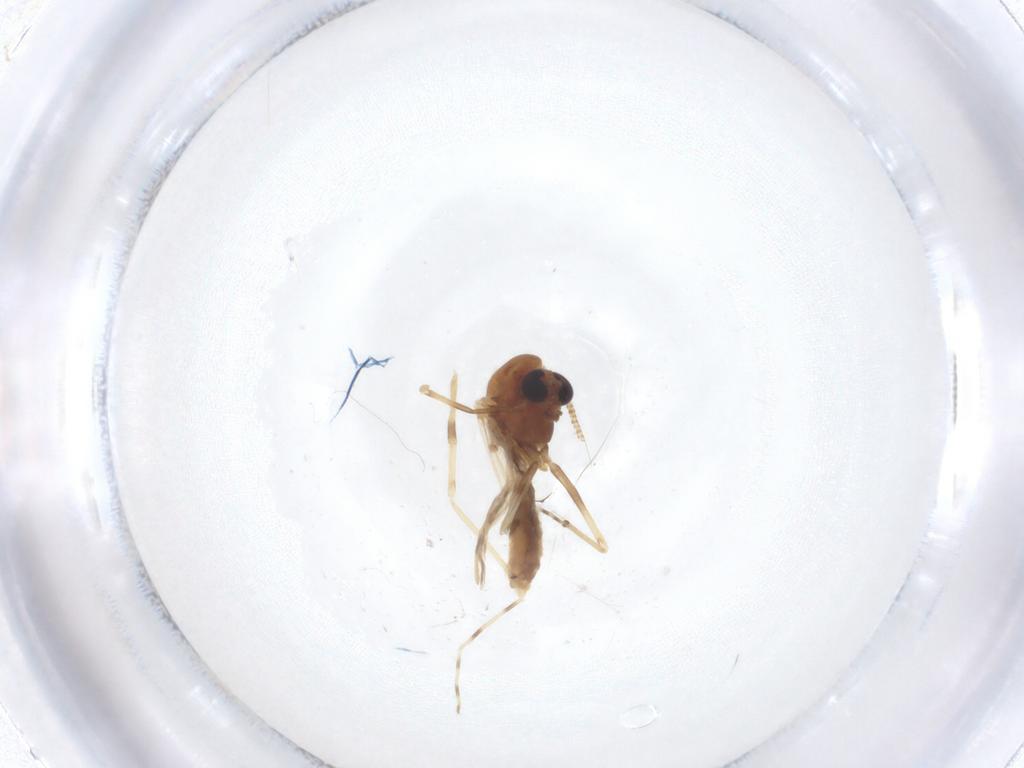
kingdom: Animalia
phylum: Arthropoda
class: Insecta
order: Diptera
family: Chironomidae
